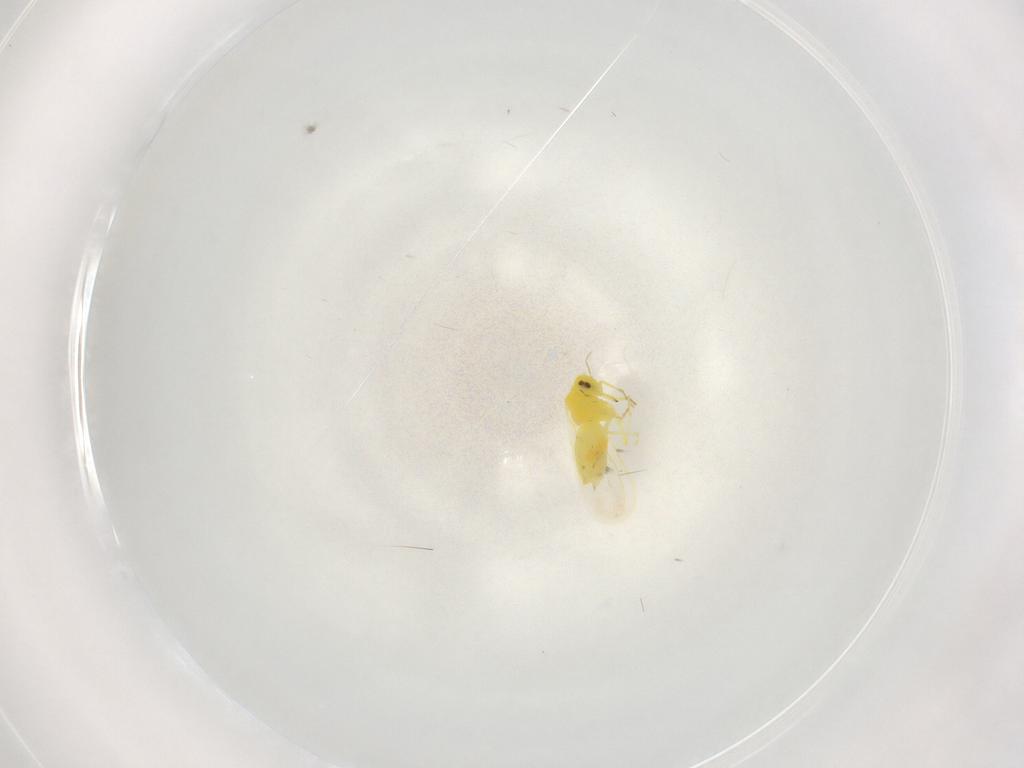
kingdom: Animalia
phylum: Arthropoda
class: Insecta
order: Hemiptera
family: Aleyrodidae
